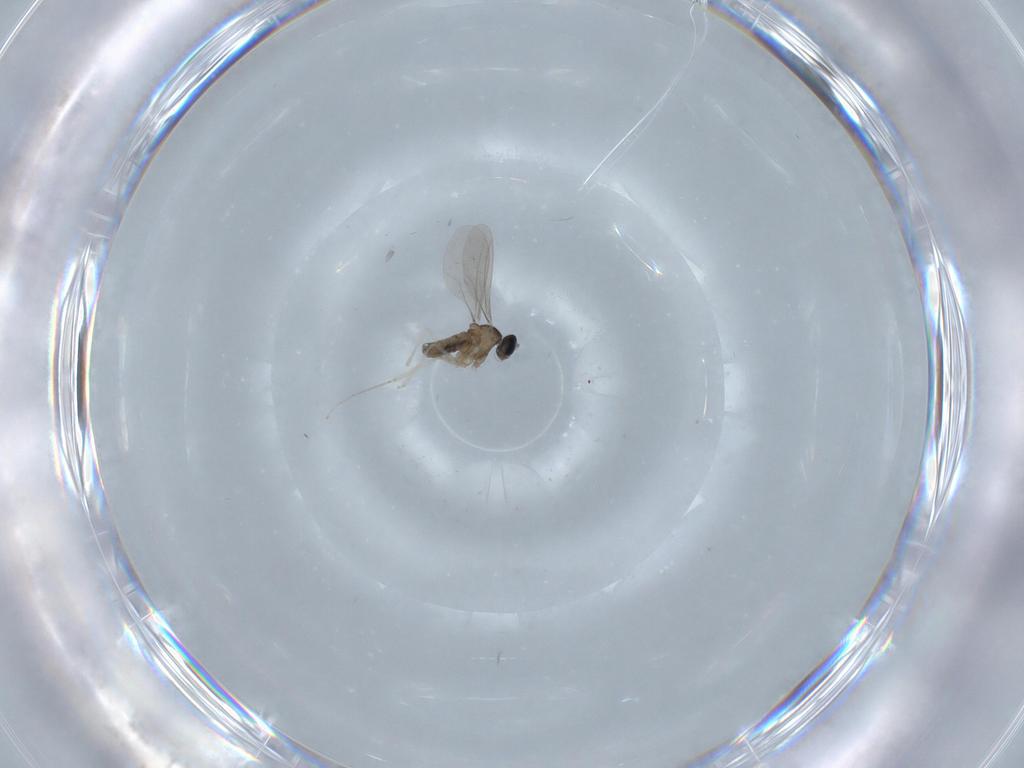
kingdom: Animalia
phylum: Arthropoda
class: Insecta
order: Diptera
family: Cecidomyiidae
